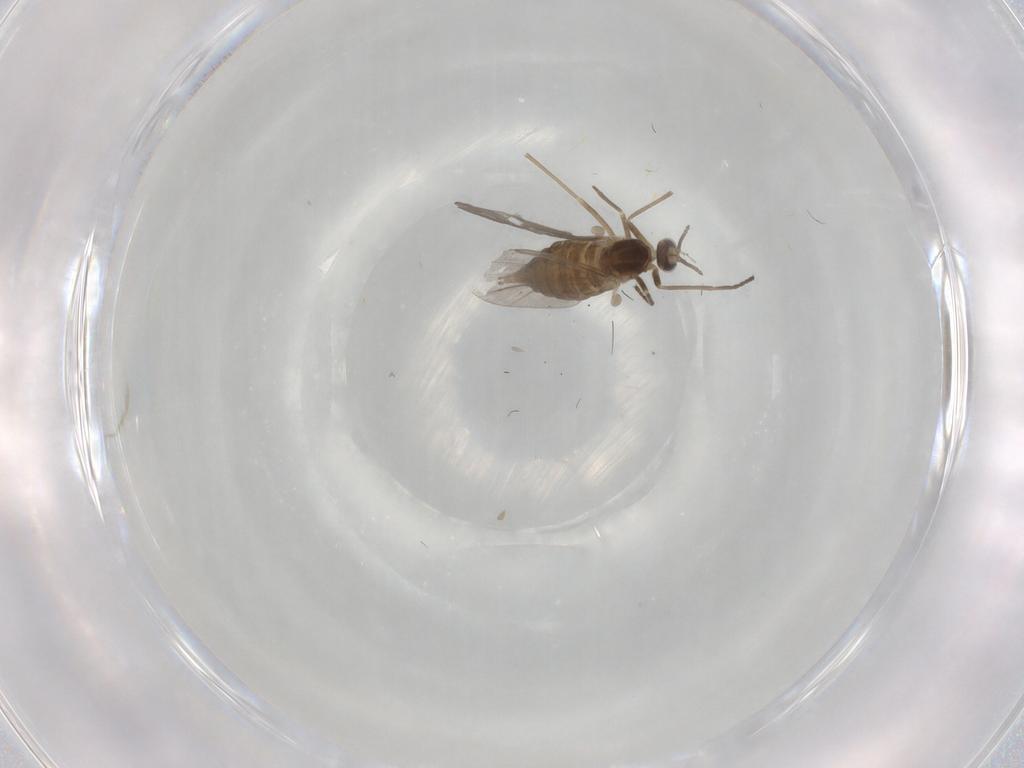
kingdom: Animalia
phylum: Arthropoda
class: Insecta
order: Diptera
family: Cecidomyiidae
